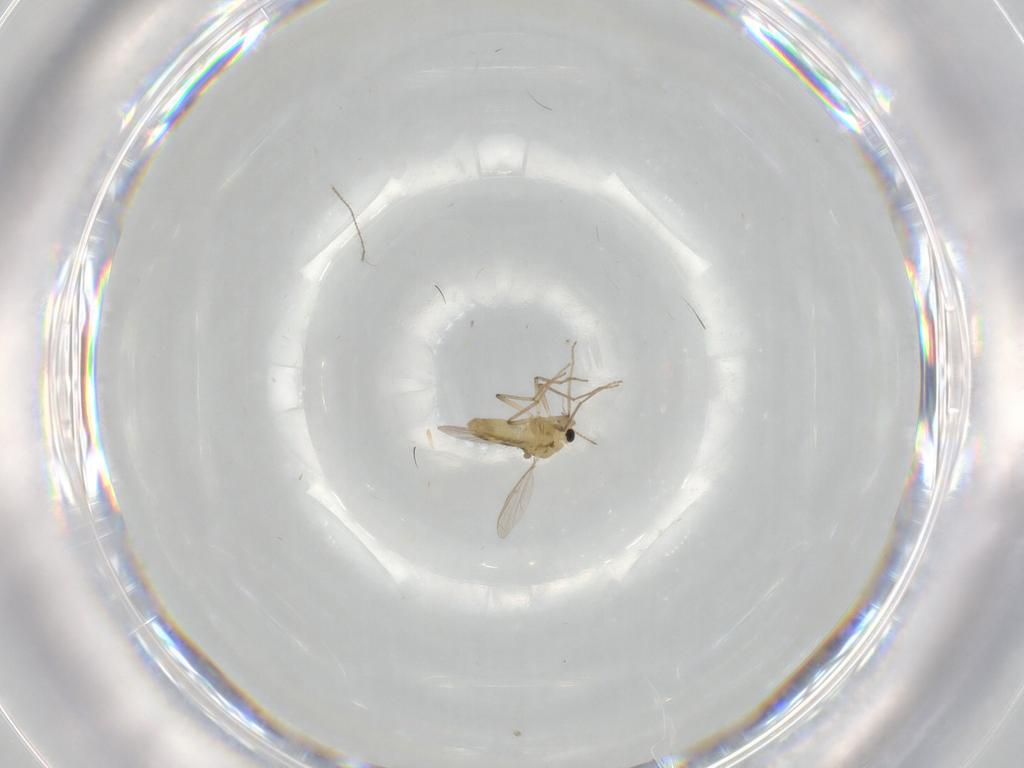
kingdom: Animalia
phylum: Arthropoda
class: Insecta
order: Diptera
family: Chironomidae
